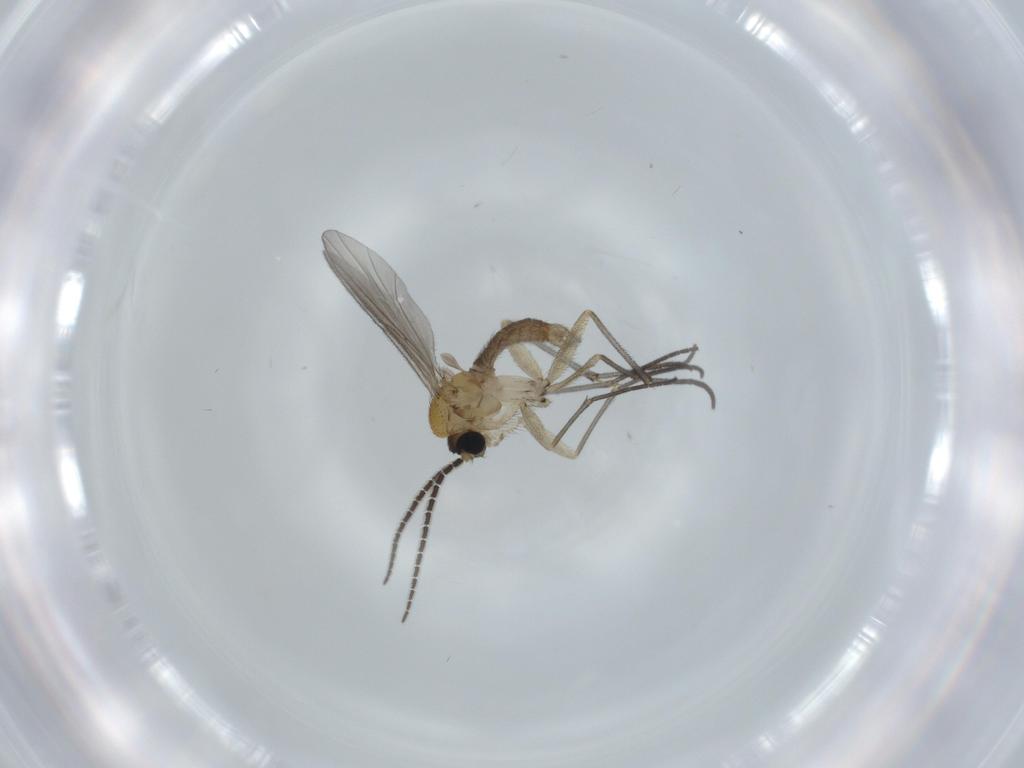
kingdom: Animalia
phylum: Arthropoda
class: Insecta
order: Diptera
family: Sciaridae
